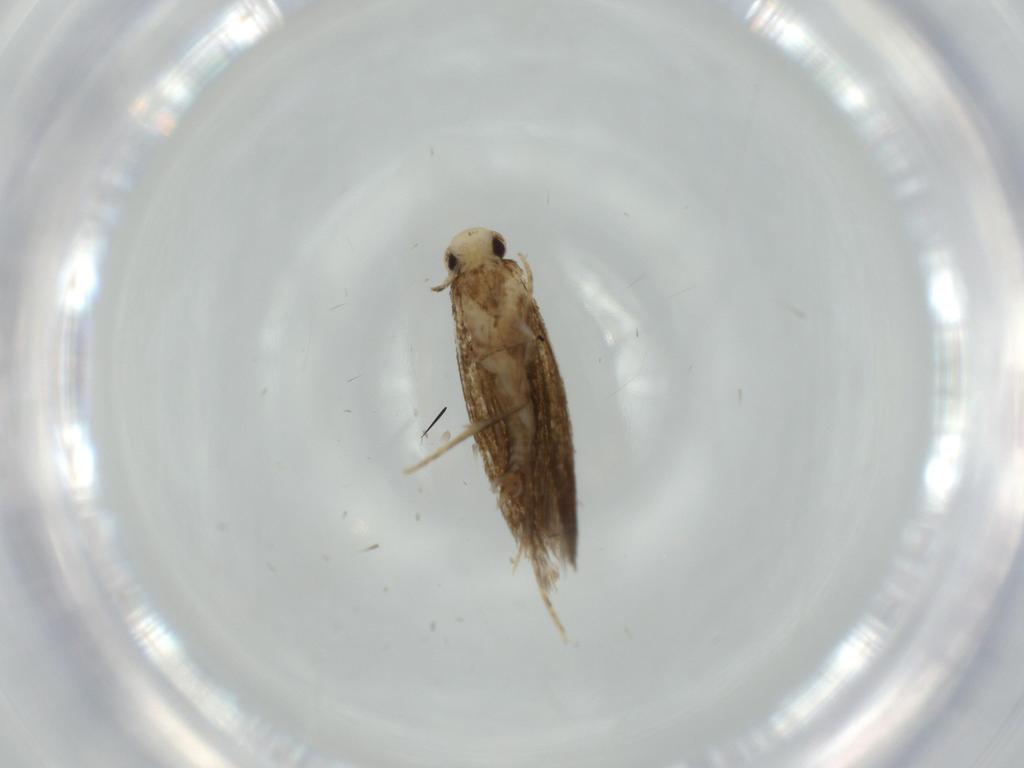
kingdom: Animalia
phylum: Arthropoda
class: Insecta
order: Lepidoptera
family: Tineidae
